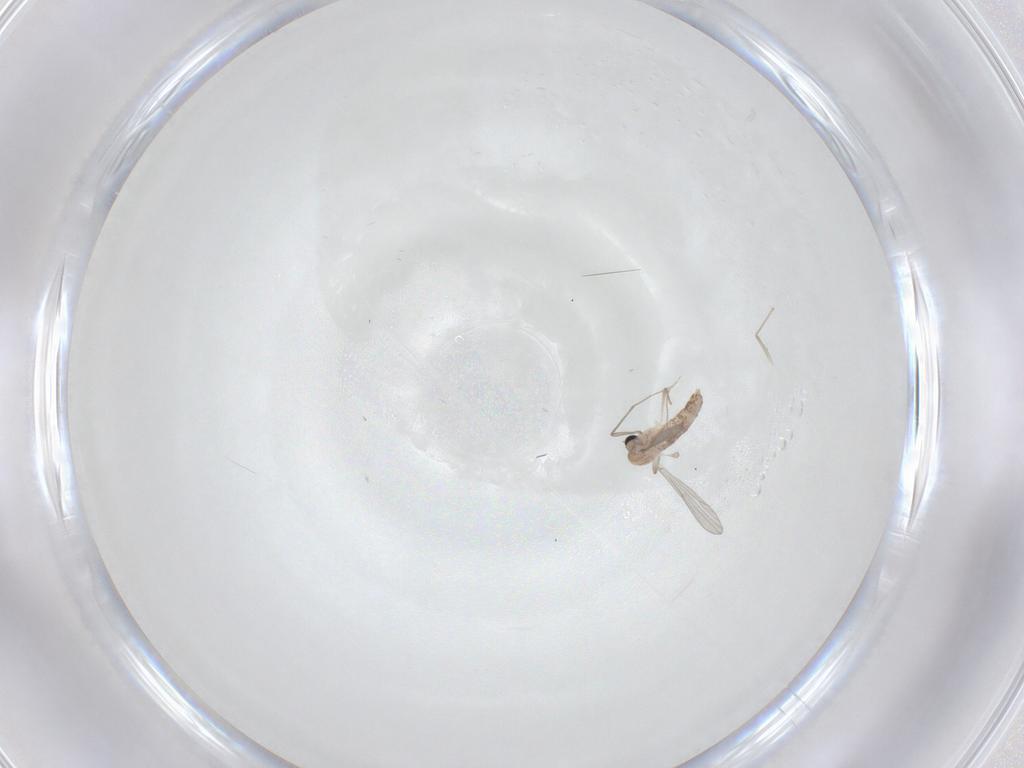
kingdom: Animalia
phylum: Arthropoda
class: Insecta
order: Diptera
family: Chironomidae
